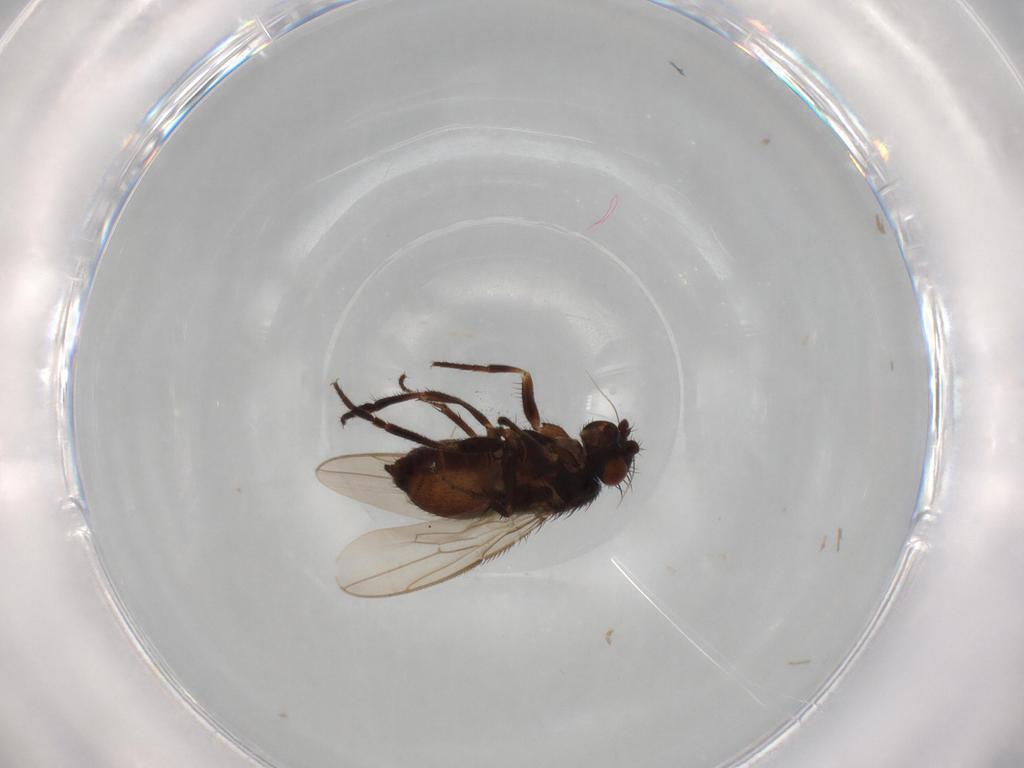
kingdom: Animalia
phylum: Arthropoda
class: Insecta
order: Diptera
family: Sphaeroceridae
